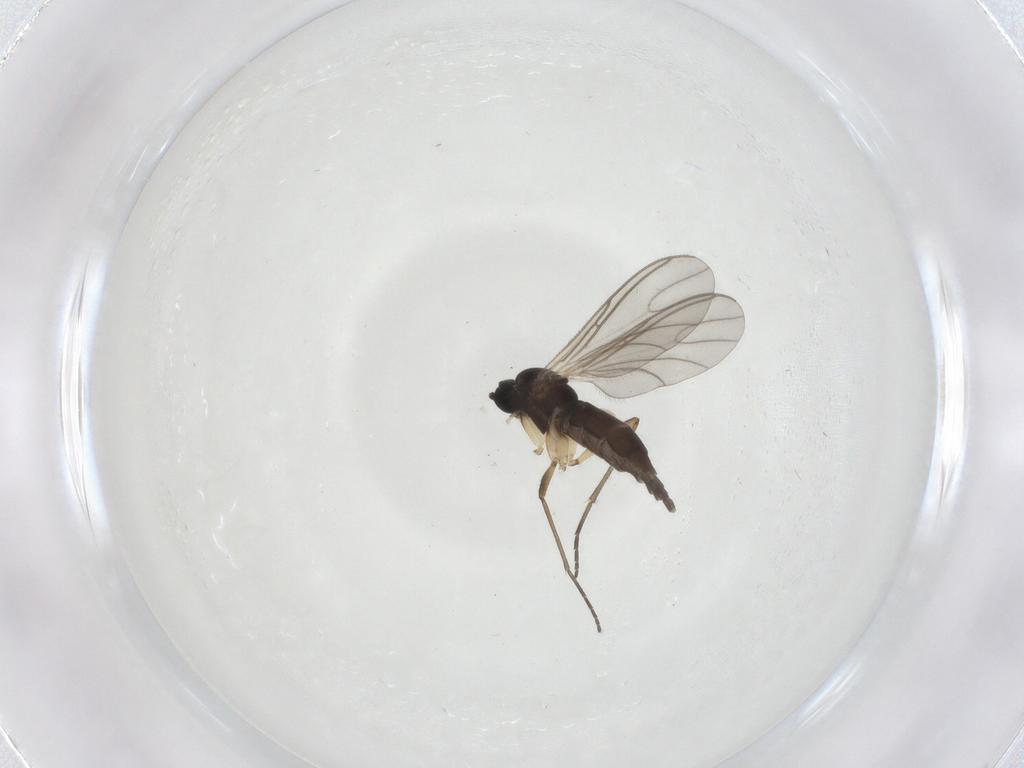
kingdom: Animalia
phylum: Arthropoda
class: Insecta
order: Diptera
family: Sciaridae
